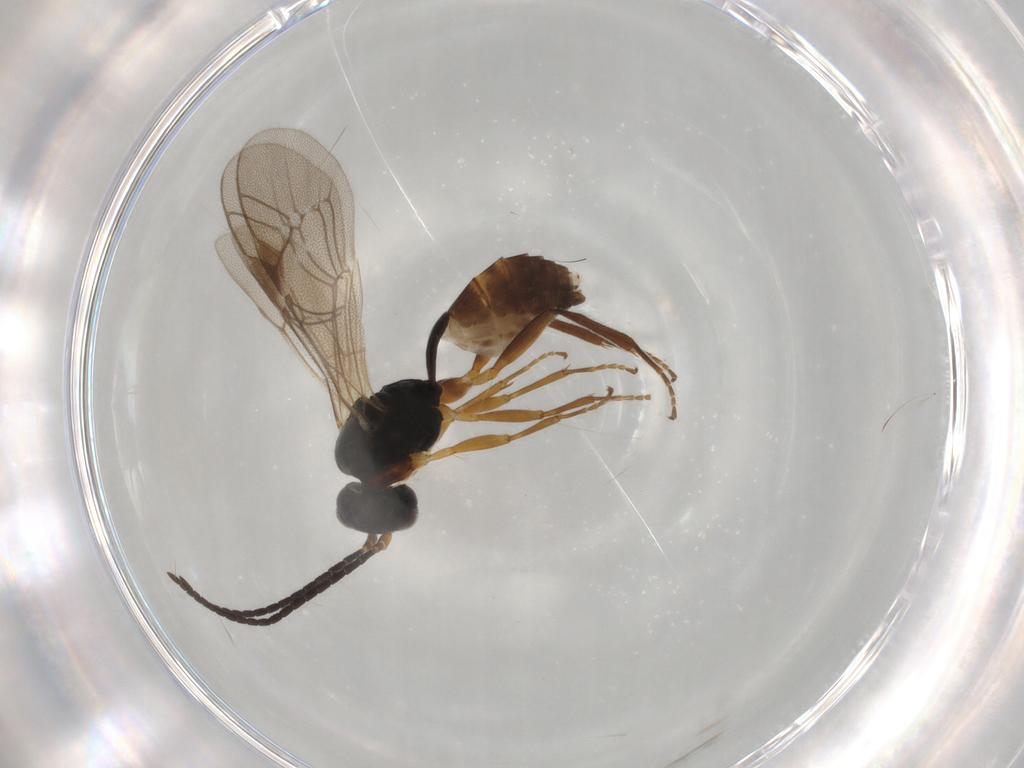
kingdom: Animalia
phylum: Arthropoda
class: Insecta
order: Hymenoptera
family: Ichneumonidae
